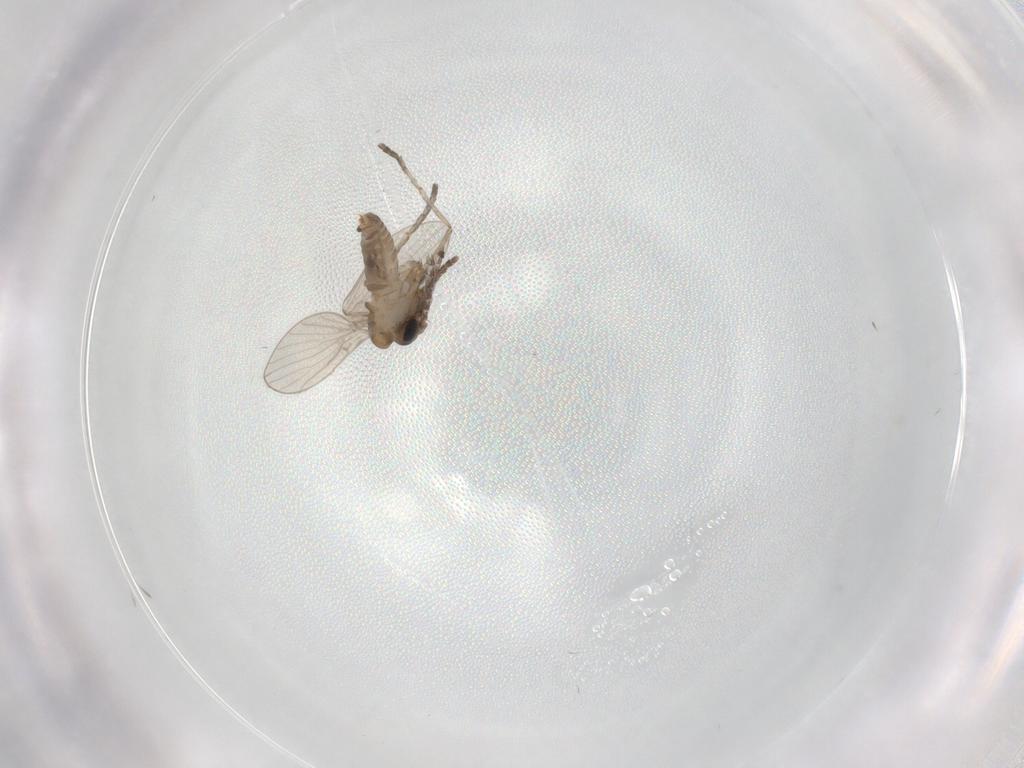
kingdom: Animalia
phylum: Arthropoda
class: Insecta
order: Diptera
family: Psychodidae
